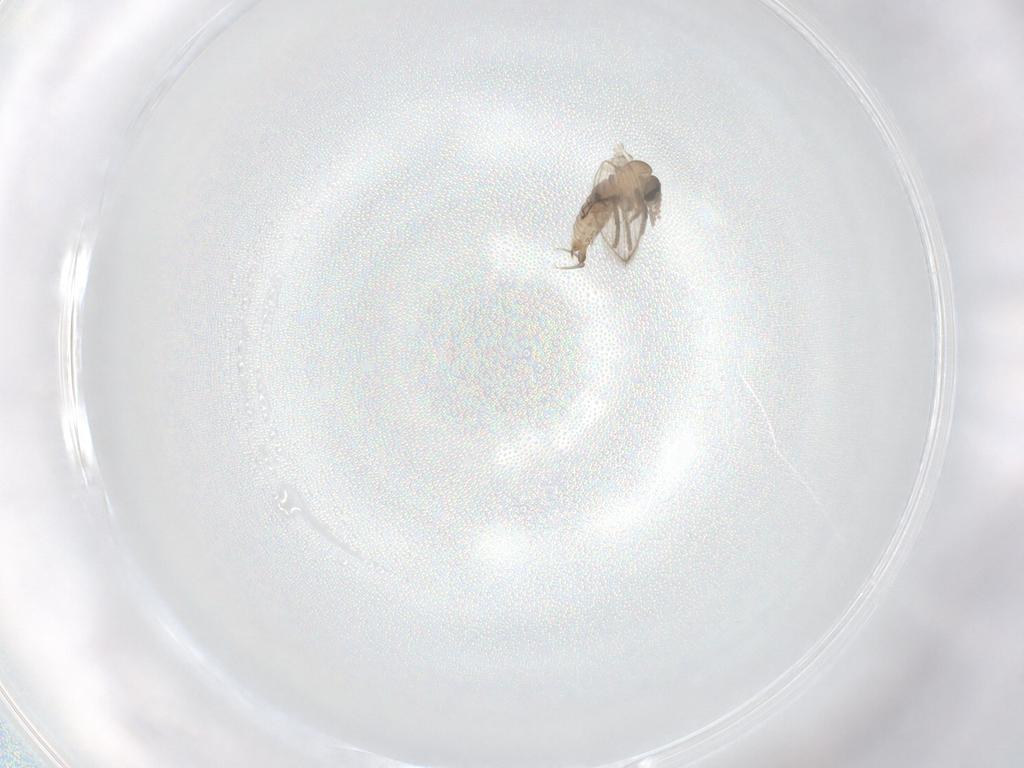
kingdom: Animalia
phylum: Arthropoda
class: Insecta
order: Diptera
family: Psychodidae
